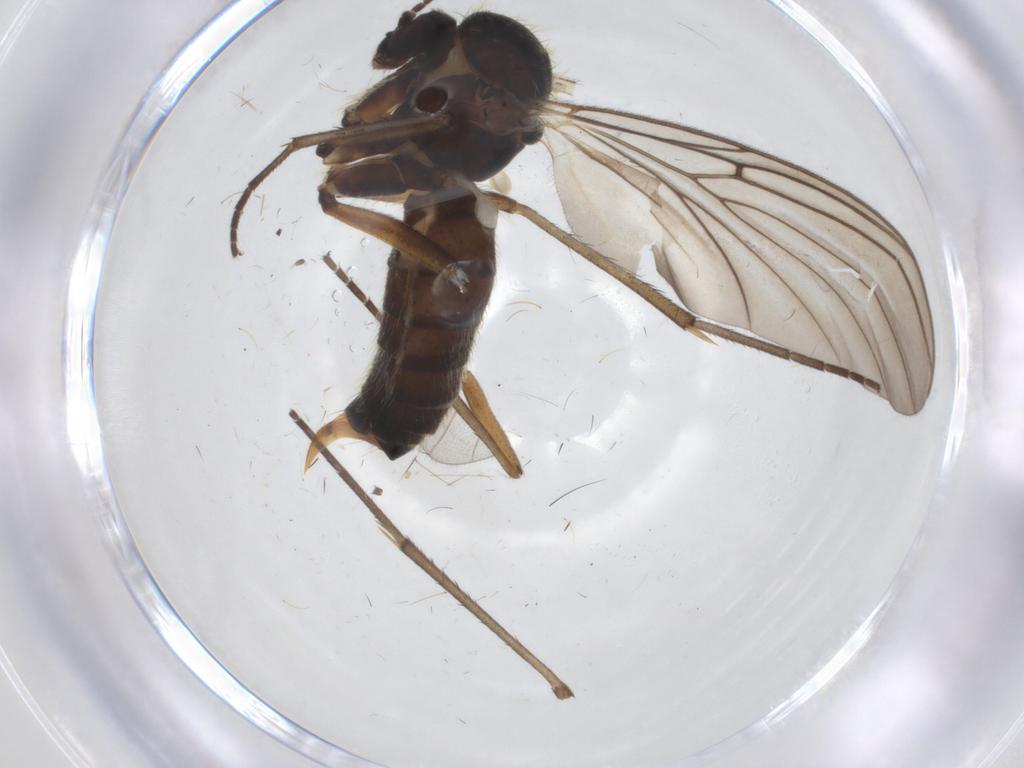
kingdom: Animalia
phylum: Arthropoda
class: Insecta
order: Diptera
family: Mycetophilidae
